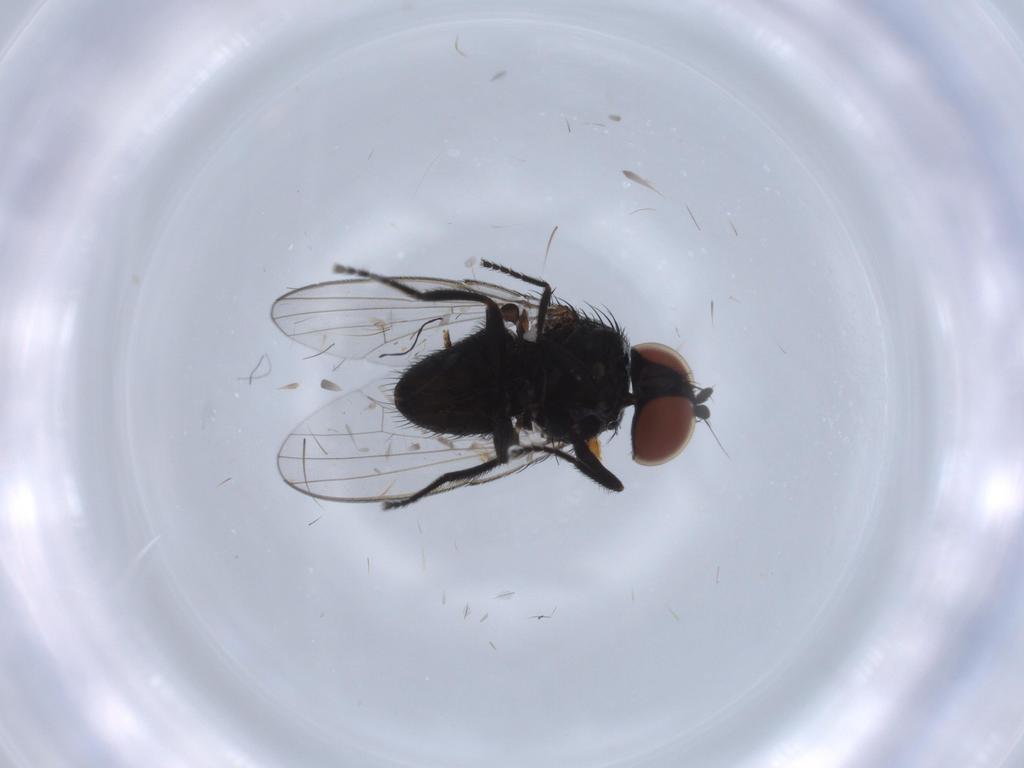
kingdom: Animalia
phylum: Arthropoda
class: Insecta
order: Diptera
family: Milichiidae
